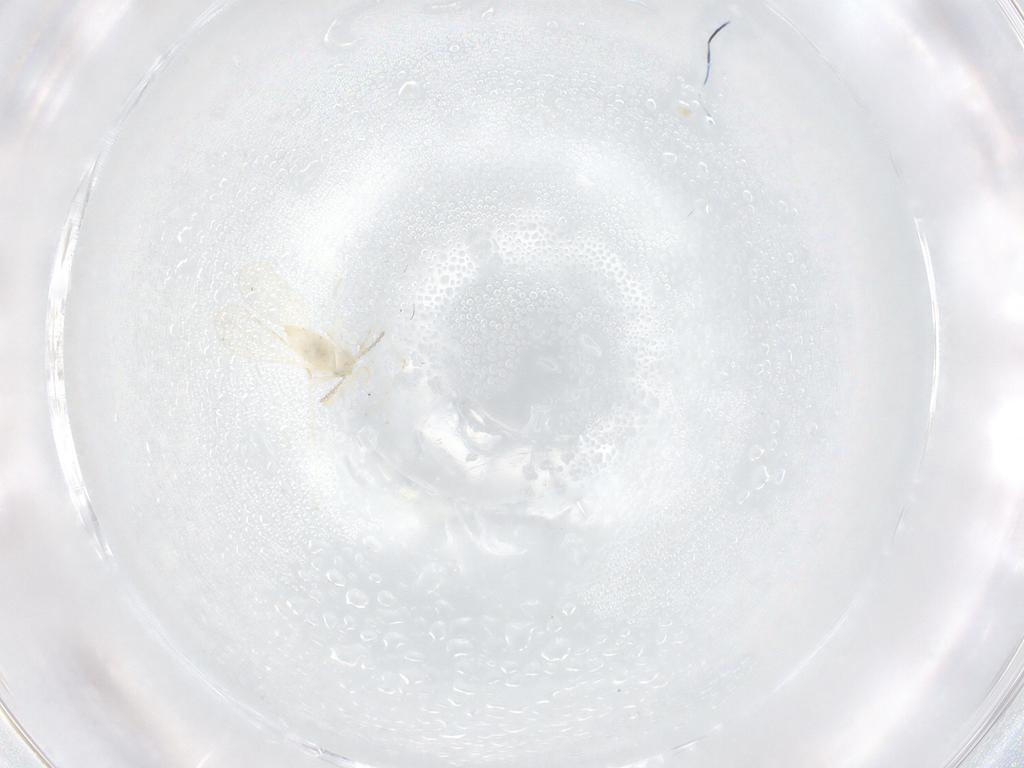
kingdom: Animalia
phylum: Arthropoda
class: Insecta
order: Diptera
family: Cecidomyiidae
